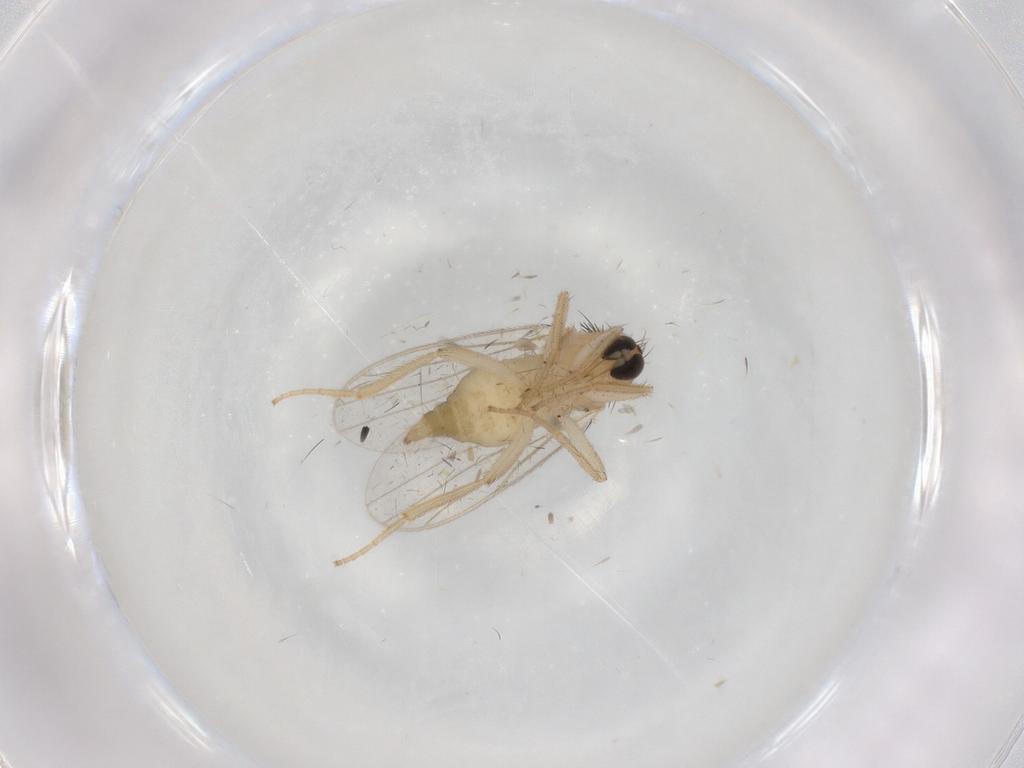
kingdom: Animalia
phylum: Arthropoda
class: Insecta
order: Diptera
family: Hybotidae
